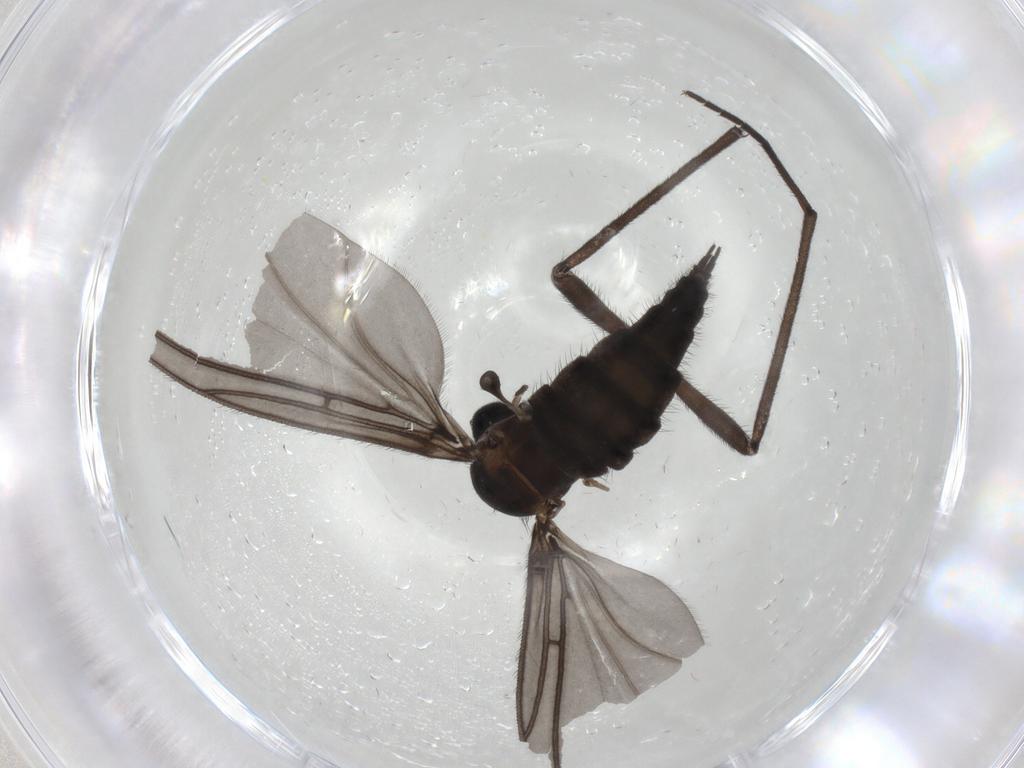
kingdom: Animalia
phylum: Arthropoda
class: Insecta
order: Diptera
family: Sciaridae
